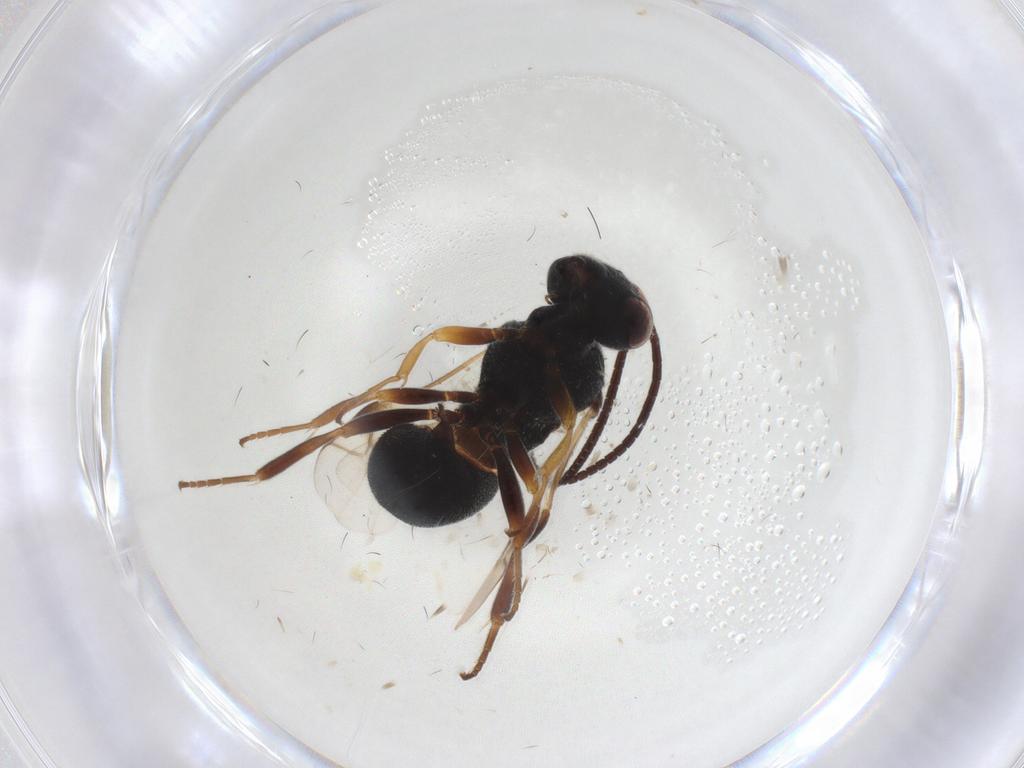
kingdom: Animalia
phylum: Arthropoda
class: Insecta
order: Hymenoptera
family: Braconidae
